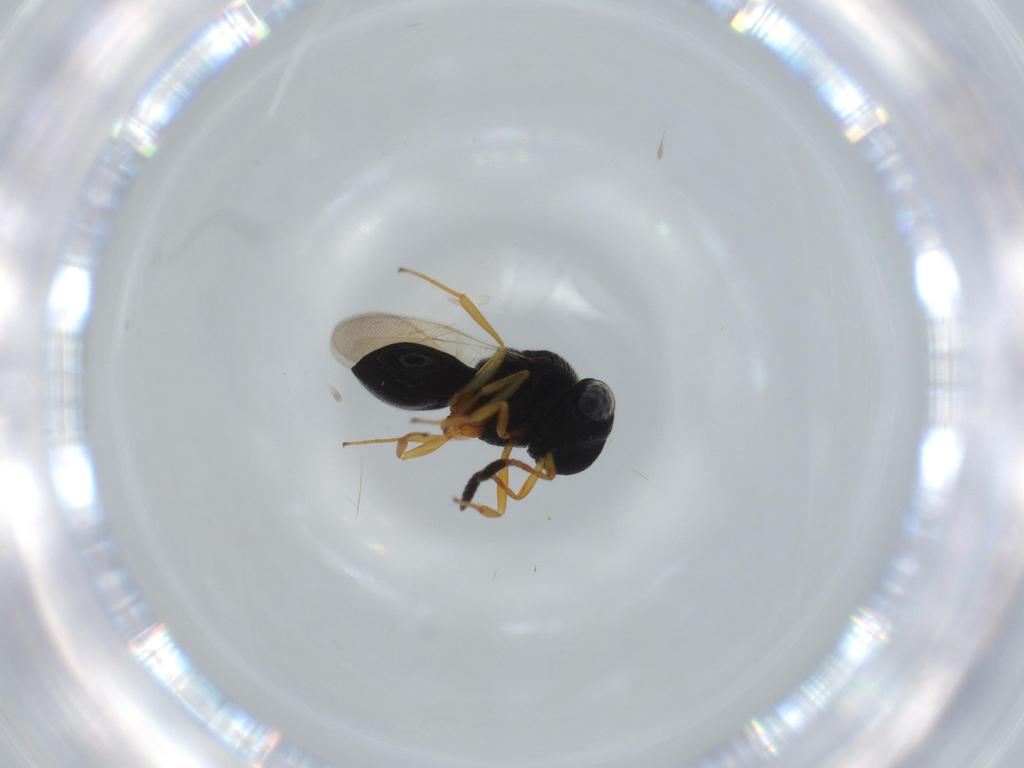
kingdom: Animalia
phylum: Arthropoda
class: Insecta
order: Hymenoptera
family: Scelionidae
